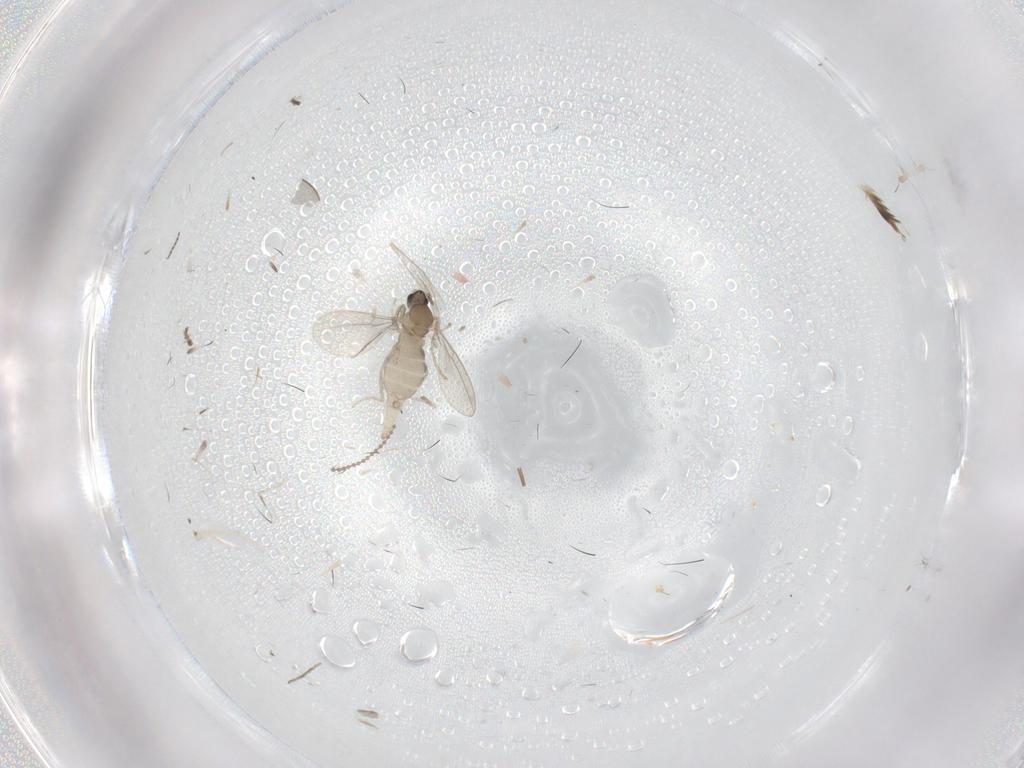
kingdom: Animalia
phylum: Arthropoda
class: Insecta
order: Diptera
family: Cecidomyiidae
